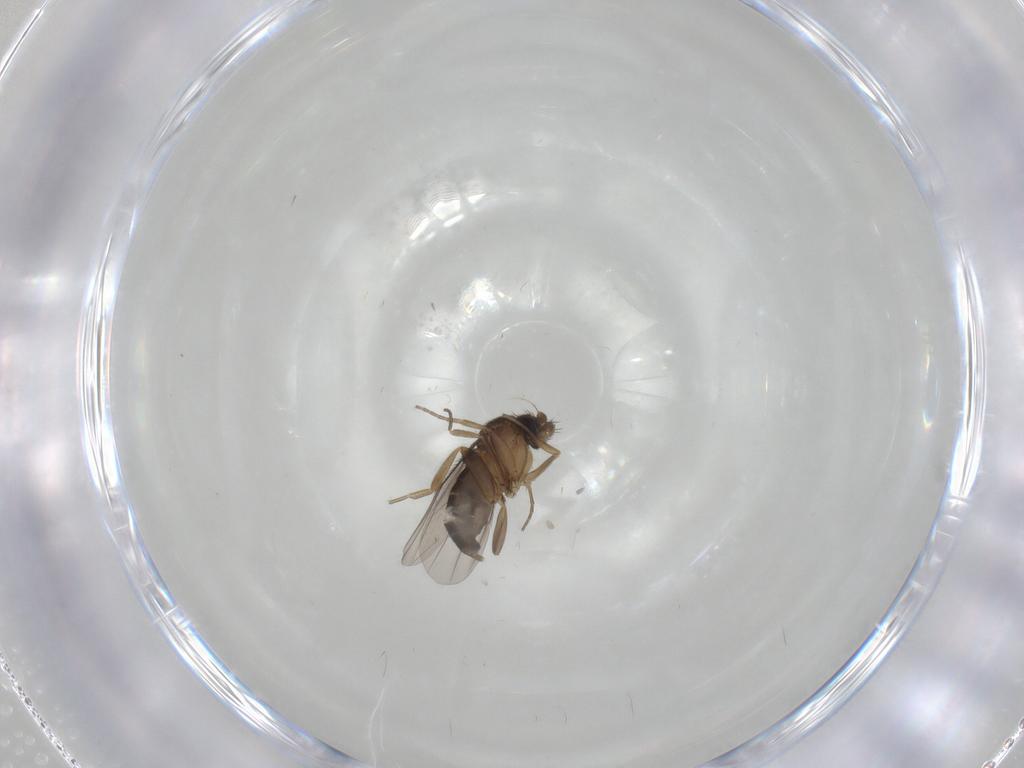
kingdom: Animalia
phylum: Arthropoda
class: Insecta
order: Diptera
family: Cecidomyiidae
